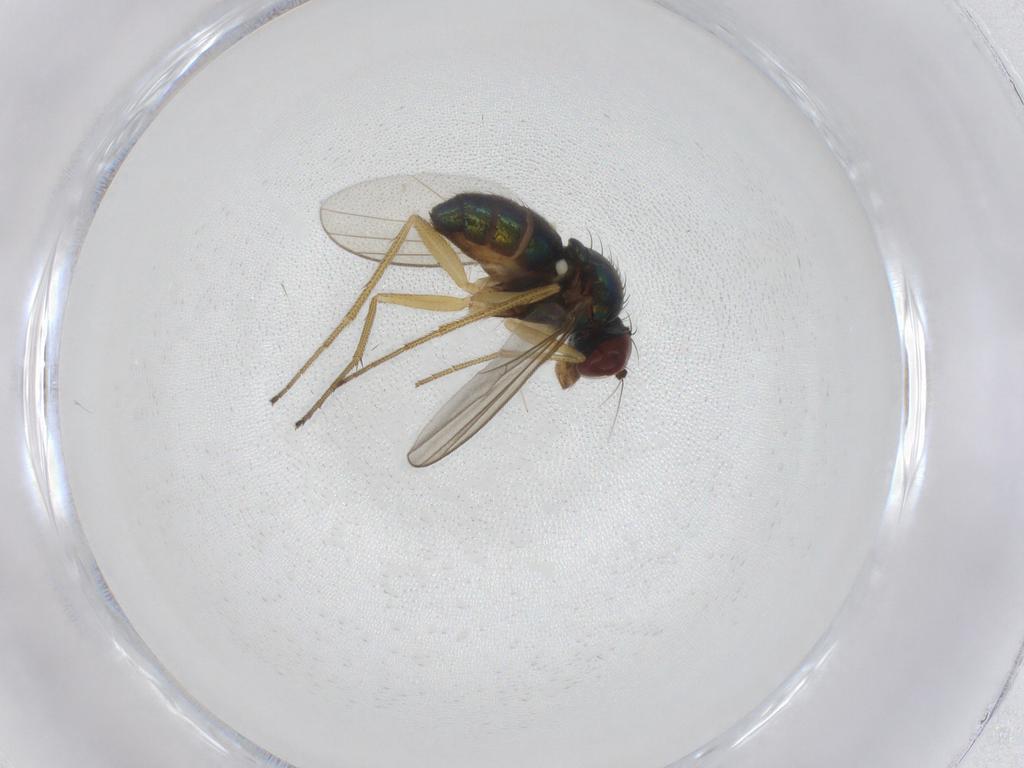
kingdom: Animalia
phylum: Arthropoda
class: Insecta
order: Diptera
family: Dolichopodidae
